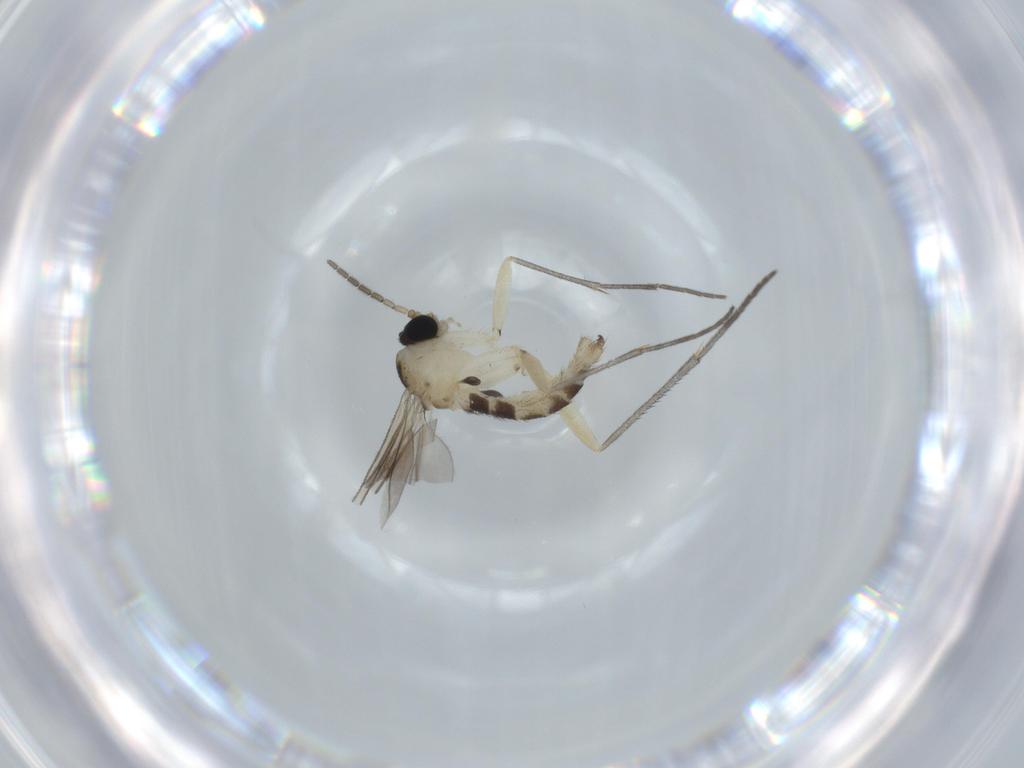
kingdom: Animalia
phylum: Arthropoda
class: Insecta
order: Diptera
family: Sciaridae
